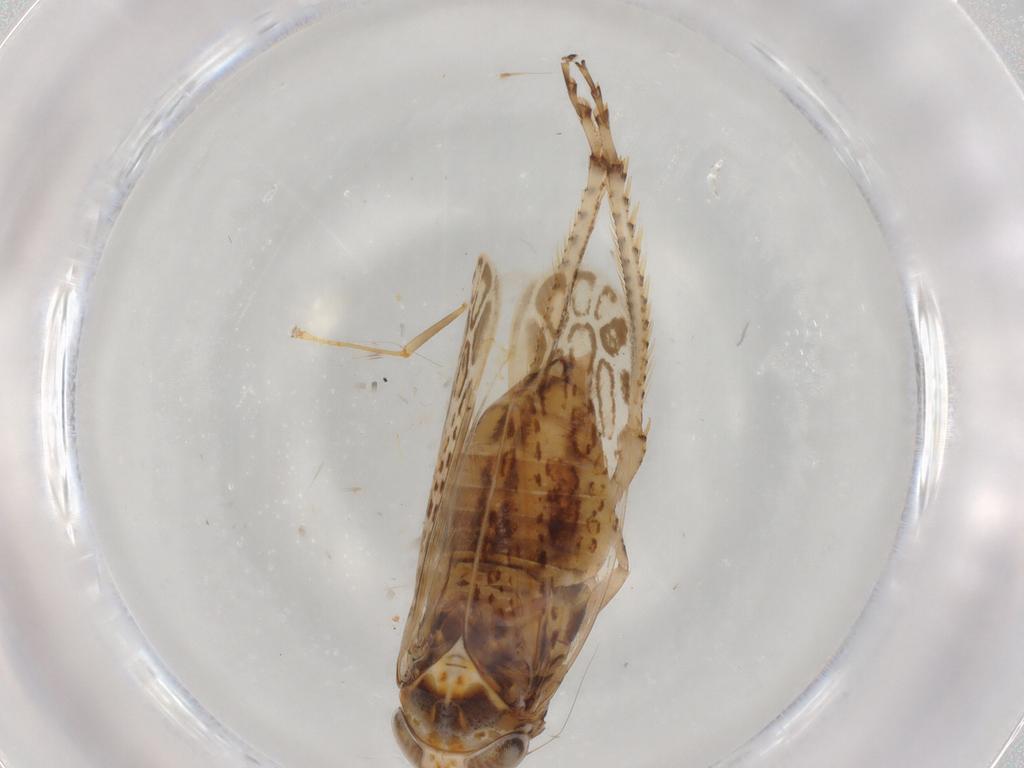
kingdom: Animalia
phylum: Arthropoda
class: Insecta
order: Hemiptera
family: Cicadellidae
